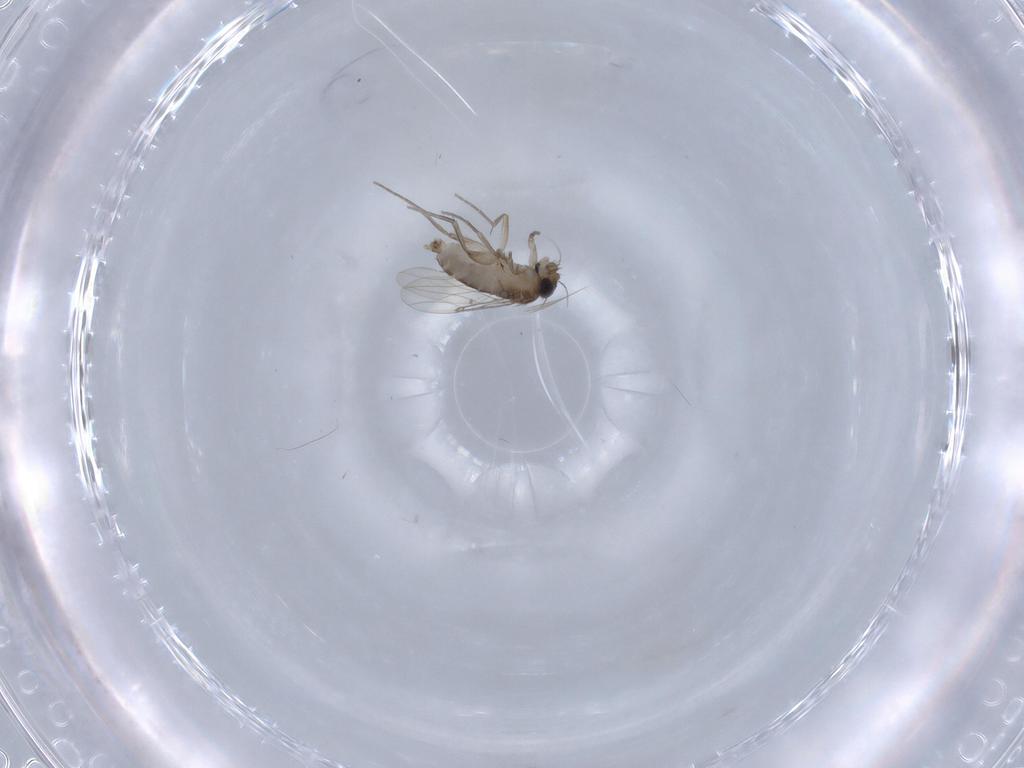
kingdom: Animalia
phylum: Arthropoda
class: Insecta
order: Diptera
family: Phoridae
